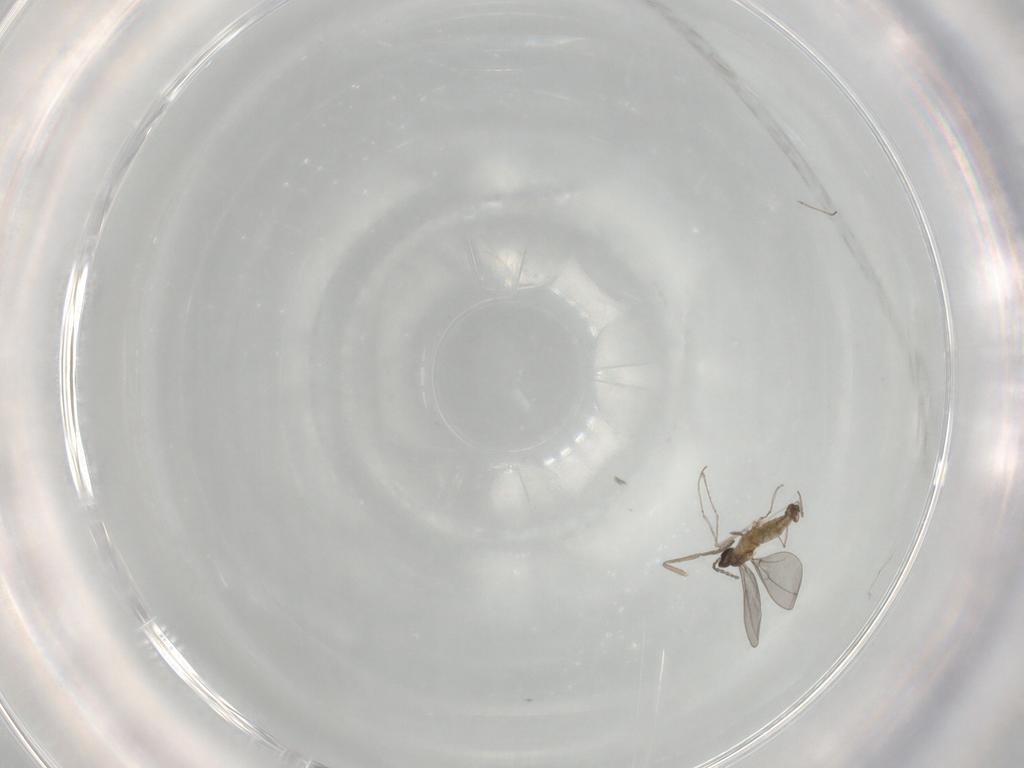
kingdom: Animalia
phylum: Arthropoda
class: Insecta
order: Diptera
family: Cecidomyiidae
